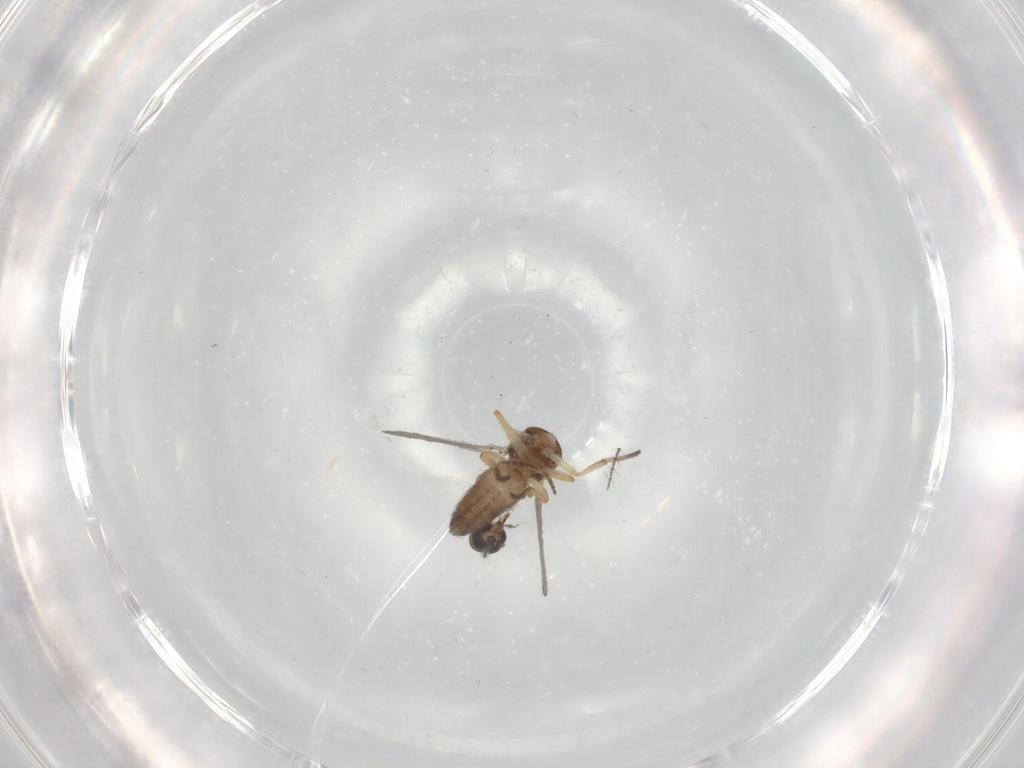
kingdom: Animalia
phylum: Arthropoda
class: Insecta
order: Diptera
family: Ceratopogonidae
